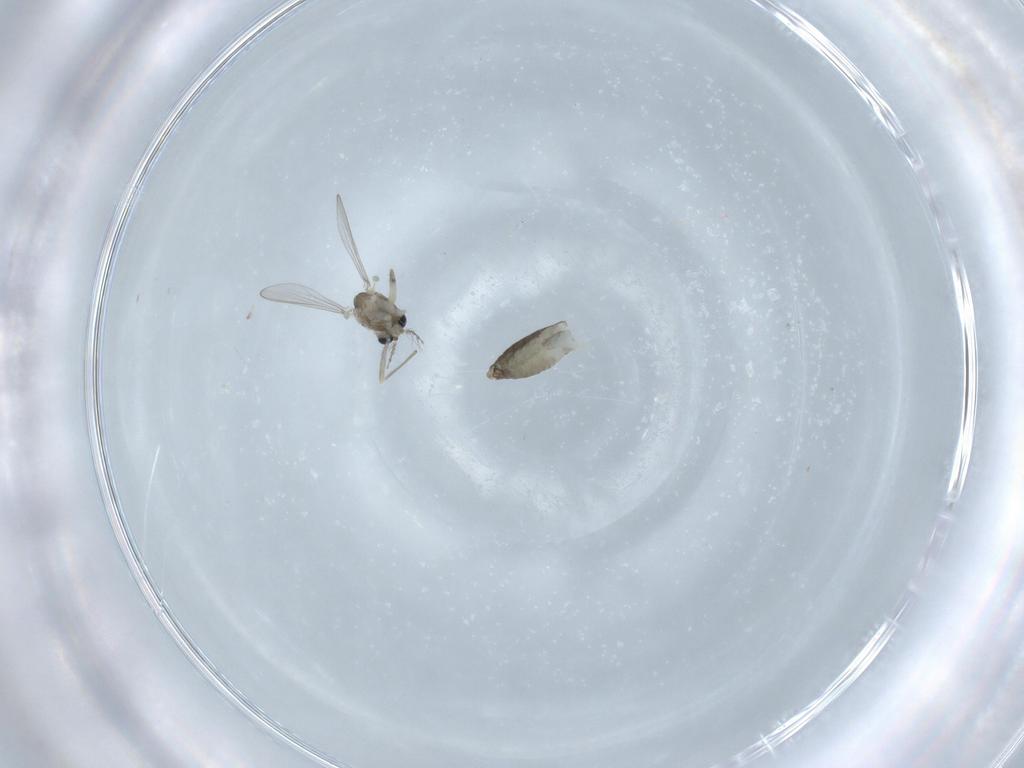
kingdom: Animalia
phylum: Arthropoda
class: Insecta
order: Diptera
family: Chironomidae
